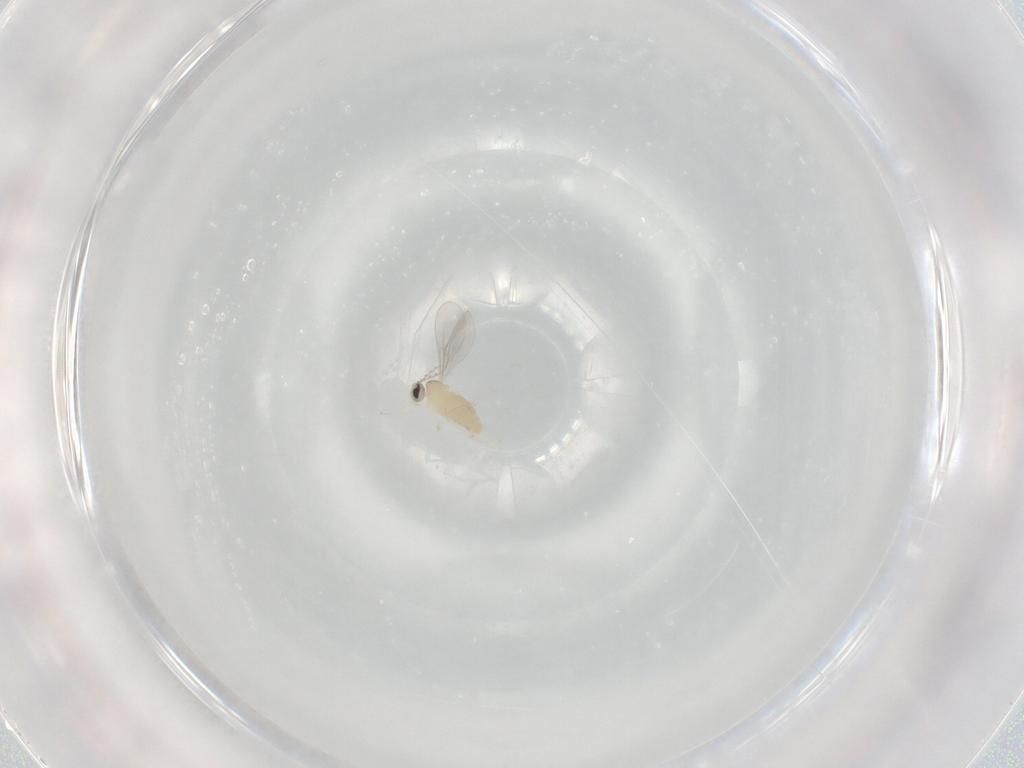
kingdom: Animalia
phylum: Arthropoda
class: Insecta
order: Diptera
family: Cecidomyiidae
